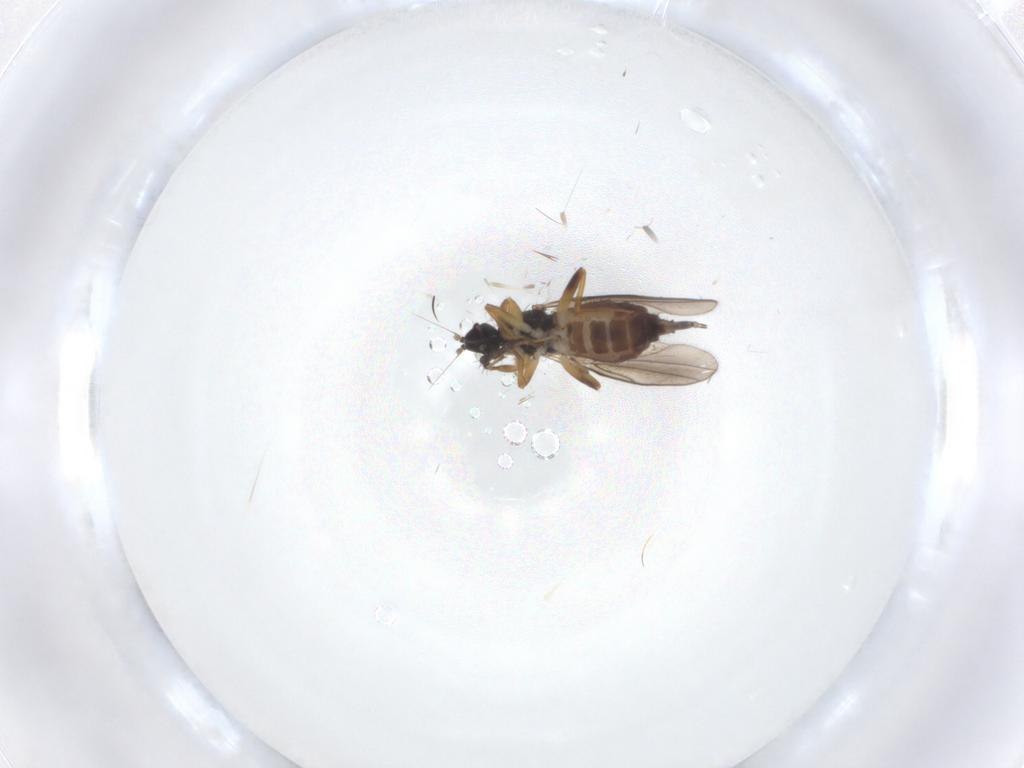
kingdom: Animalia
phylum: Arthropoda
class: Insecta
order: Diptera
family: Hybotidae
